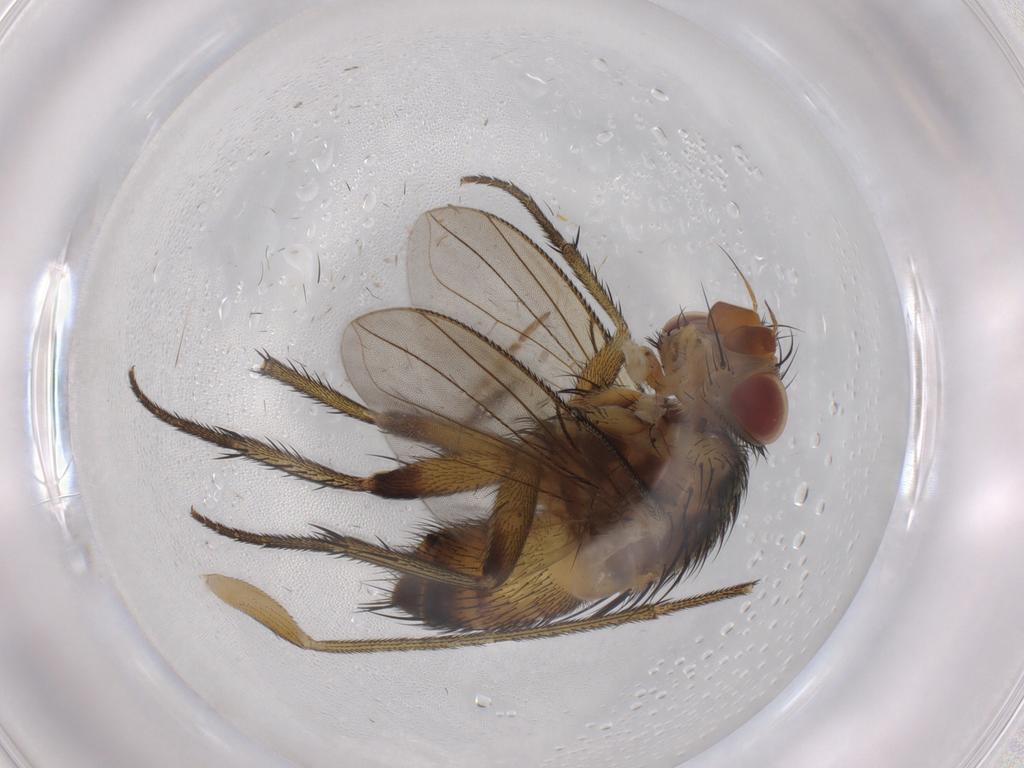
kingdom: Animalia
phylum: Arthropoda
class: Insecta
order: Diptera
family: Tachinidae
